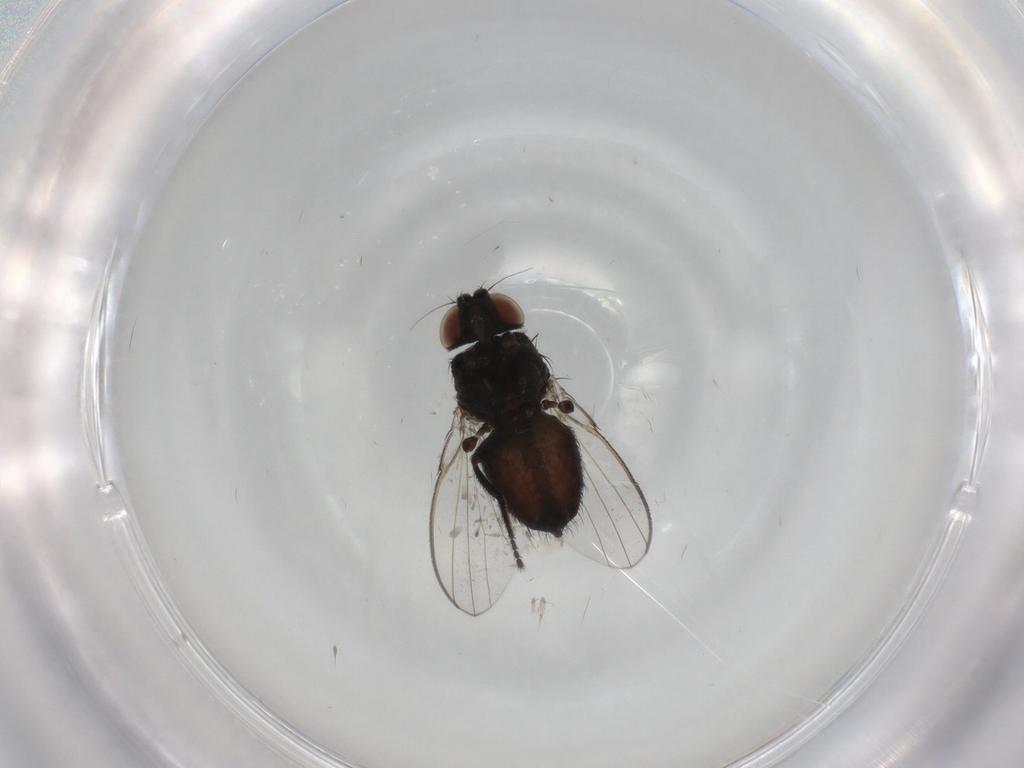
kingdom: Animalia
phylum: Arthropoda
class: Insecta
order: Diptera
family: Milichiidae
